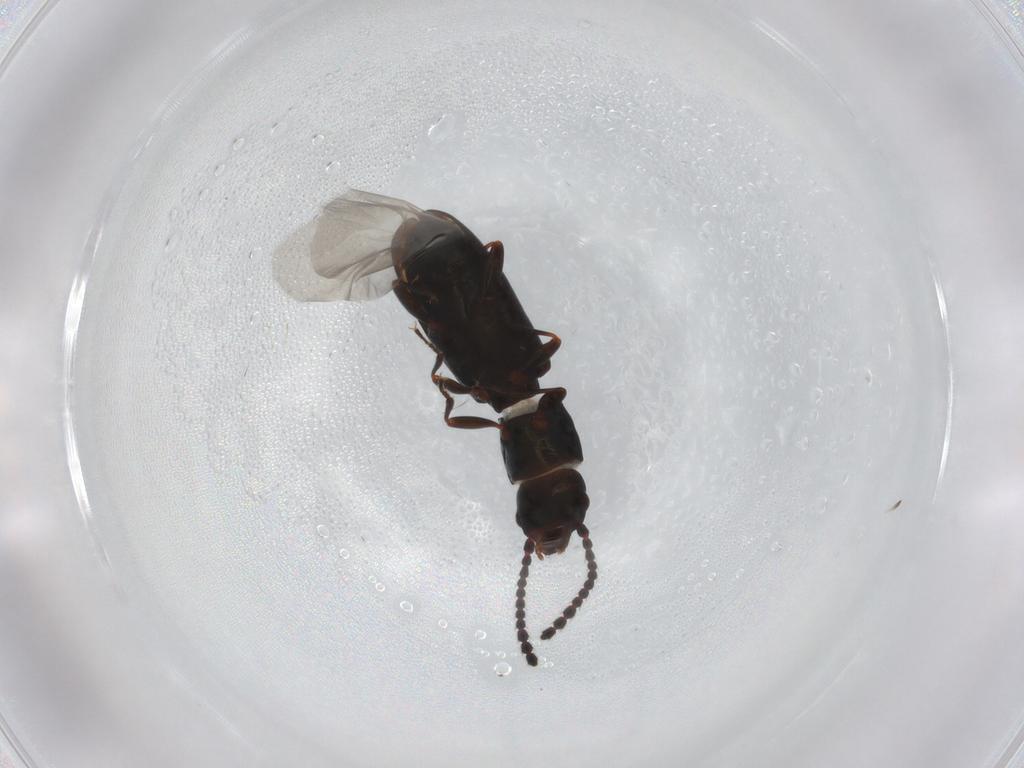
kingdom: Animalia
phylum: Arthropoda
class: Insecta
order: Coleoptera
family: Laemophloeidae
